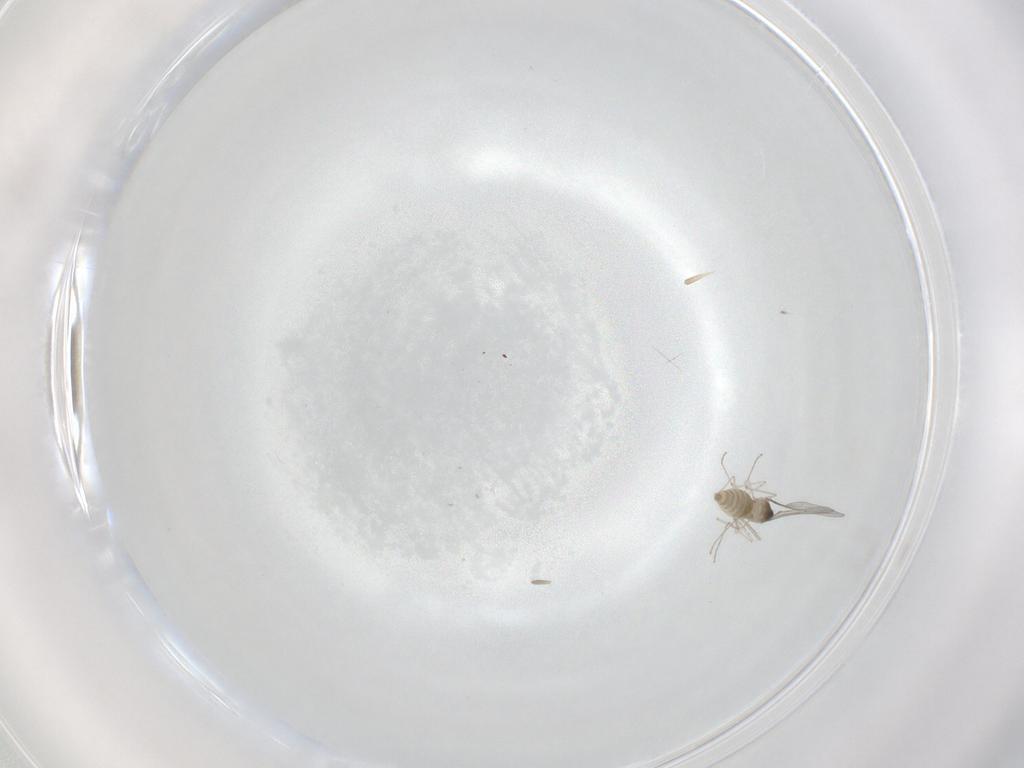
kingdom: Animalia
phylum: Arthropoda
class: Insecta
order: Diptera
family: Cecidomyiidae
